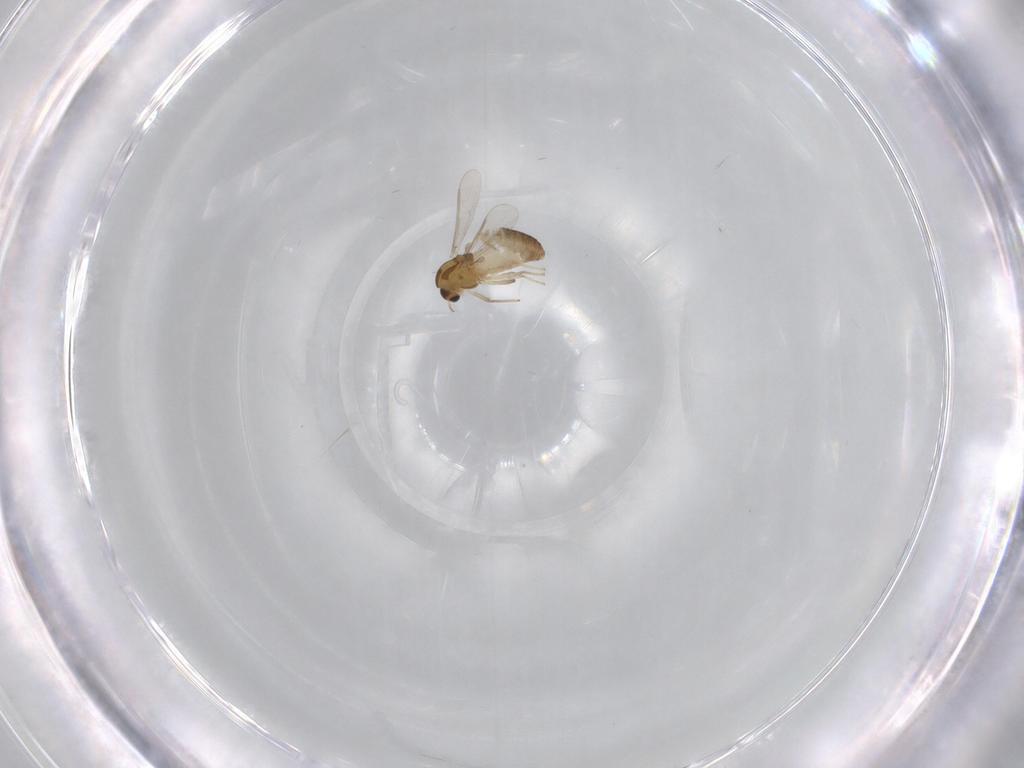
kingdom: Animalia
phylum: Arthropoda
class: Insecta
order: Diptera
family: Chironomidae
